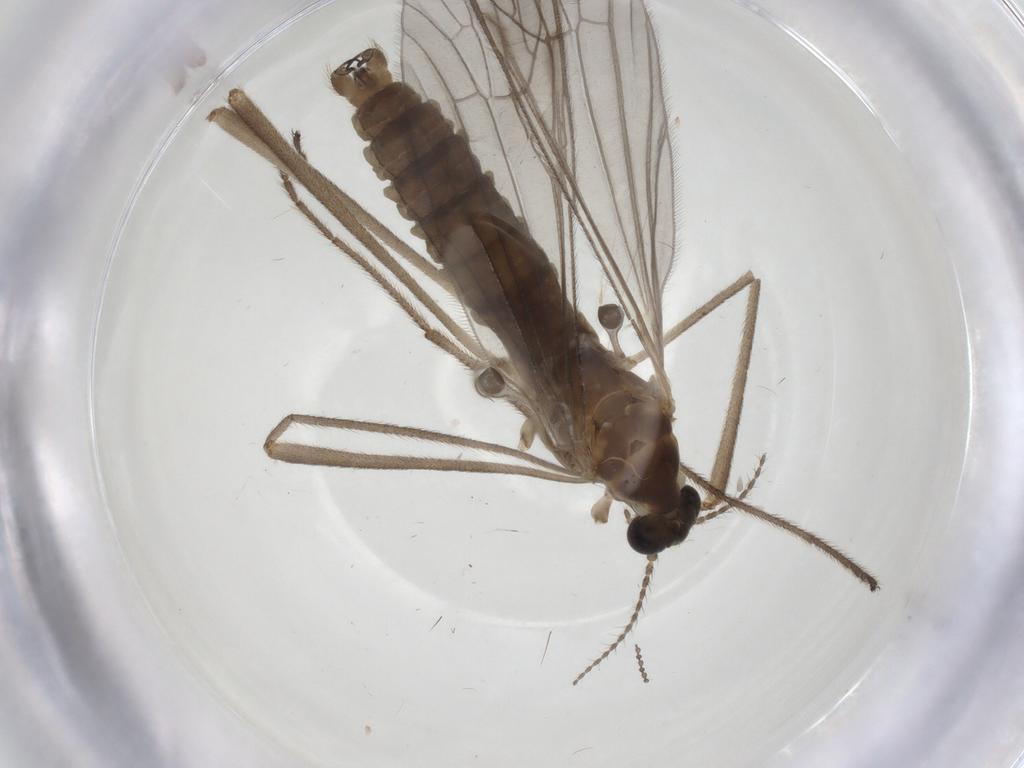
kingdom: Animalia
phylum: Arthropoda
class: Insecta
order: Diptera
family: Limoniidae
